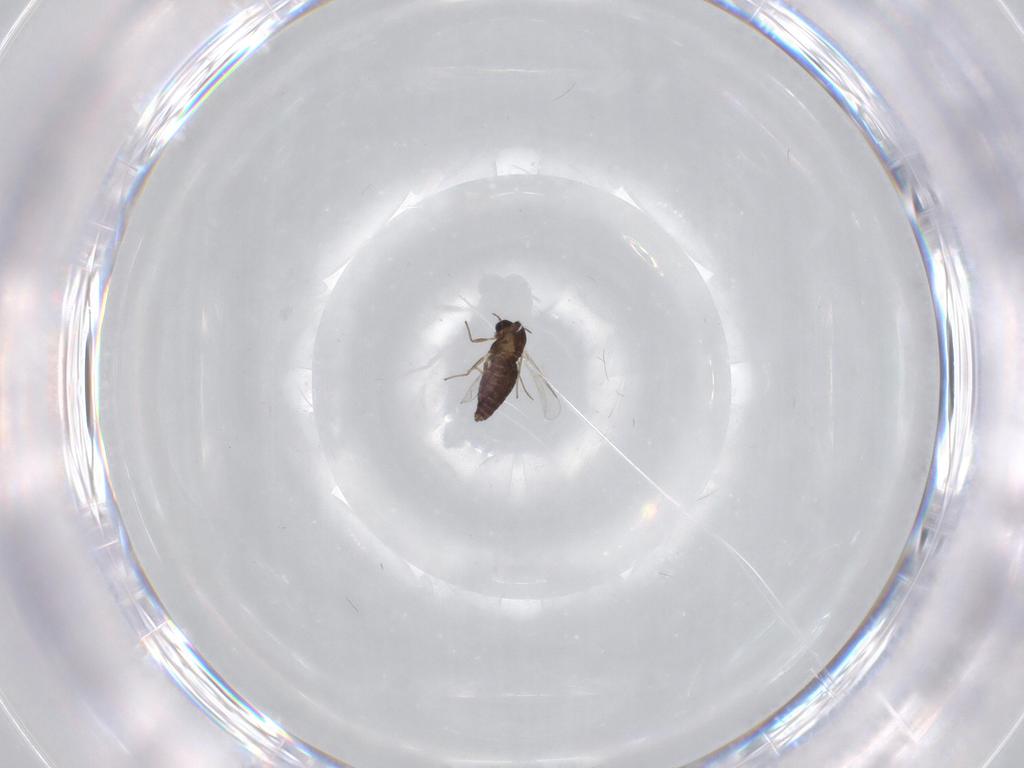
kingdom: Animalia
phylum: Arthropoda
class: Insecta
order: Diptera
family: Chironomidae
